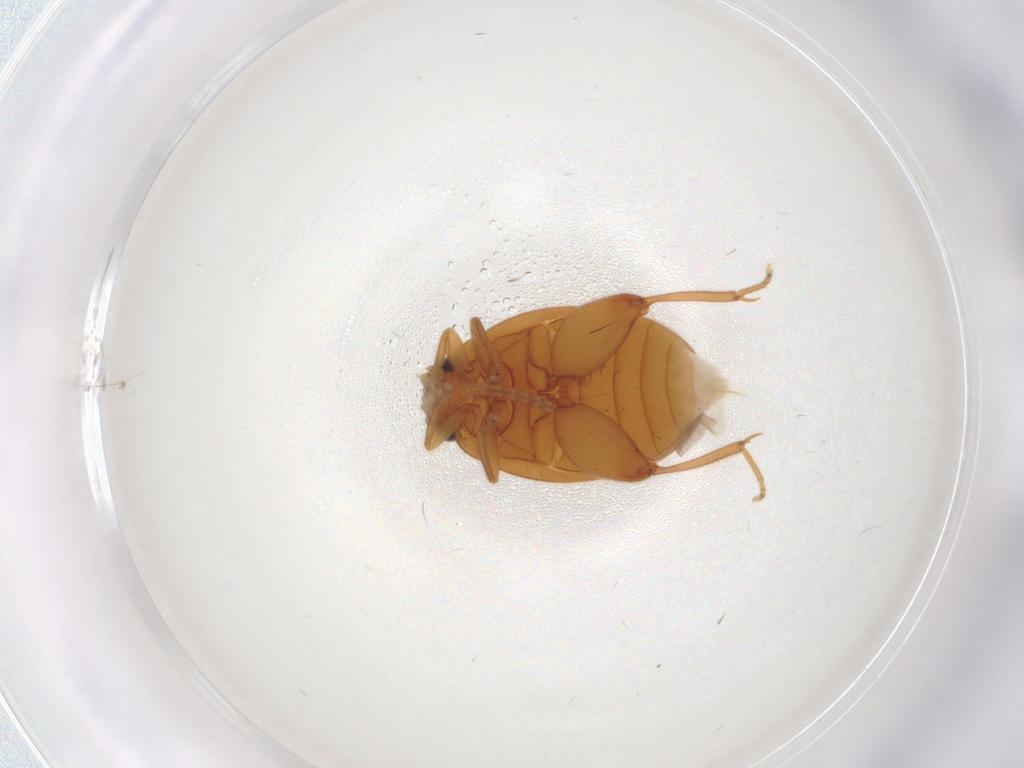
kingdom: Animalia
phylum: Arthropoda
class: Insecta
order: Coleoptera
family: Scirtidae
